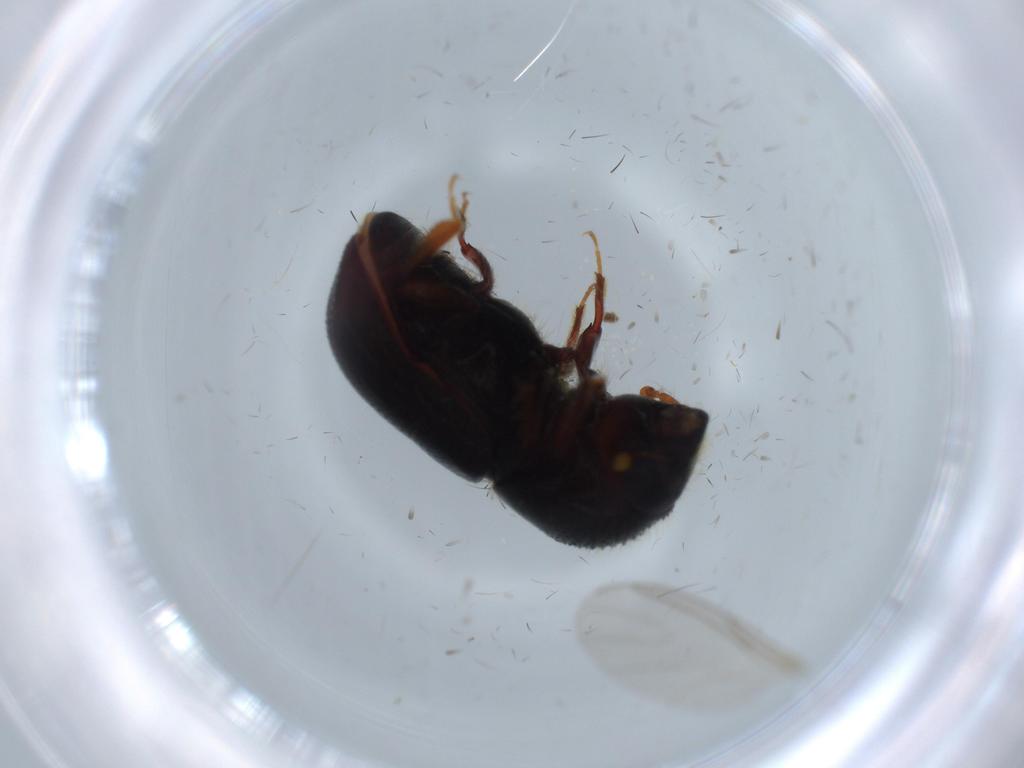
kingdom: Animalia
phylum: Arthropoda
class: Insecta
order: Coleoptera
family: Curculionidae
